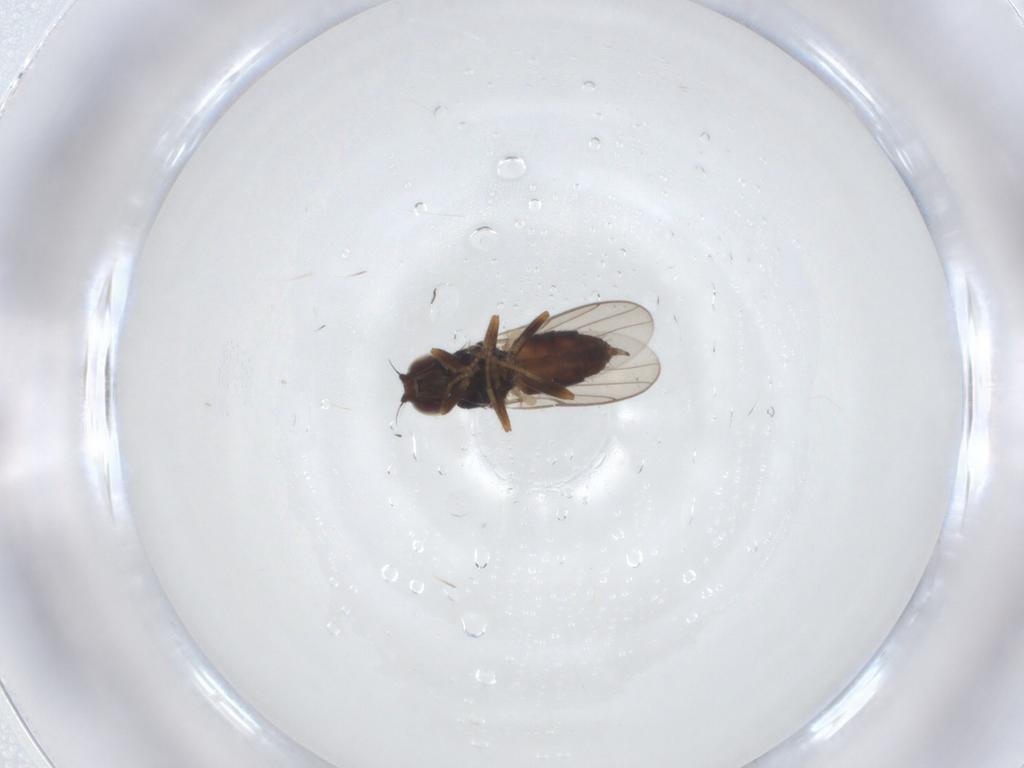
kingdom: Animalia
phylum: Arthropoda
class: Insecta
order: Diptera
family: Chloropidae
